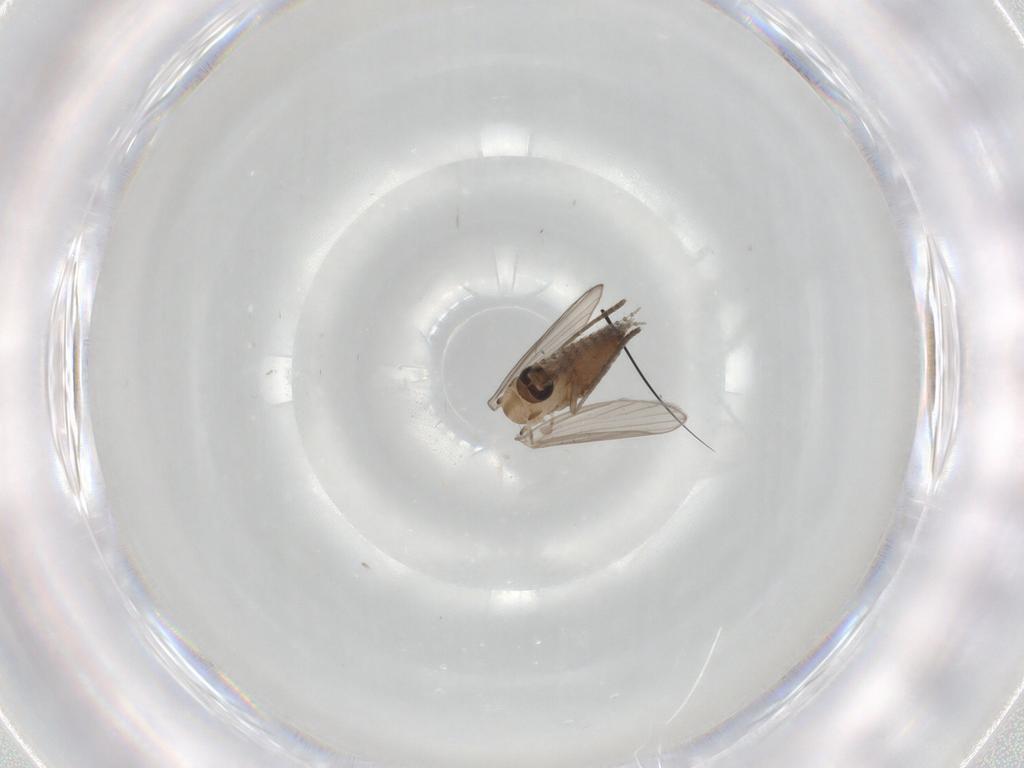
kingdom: Animalia
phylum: Arthropoda
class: Insecta
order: Diptera
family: Psychodidae
